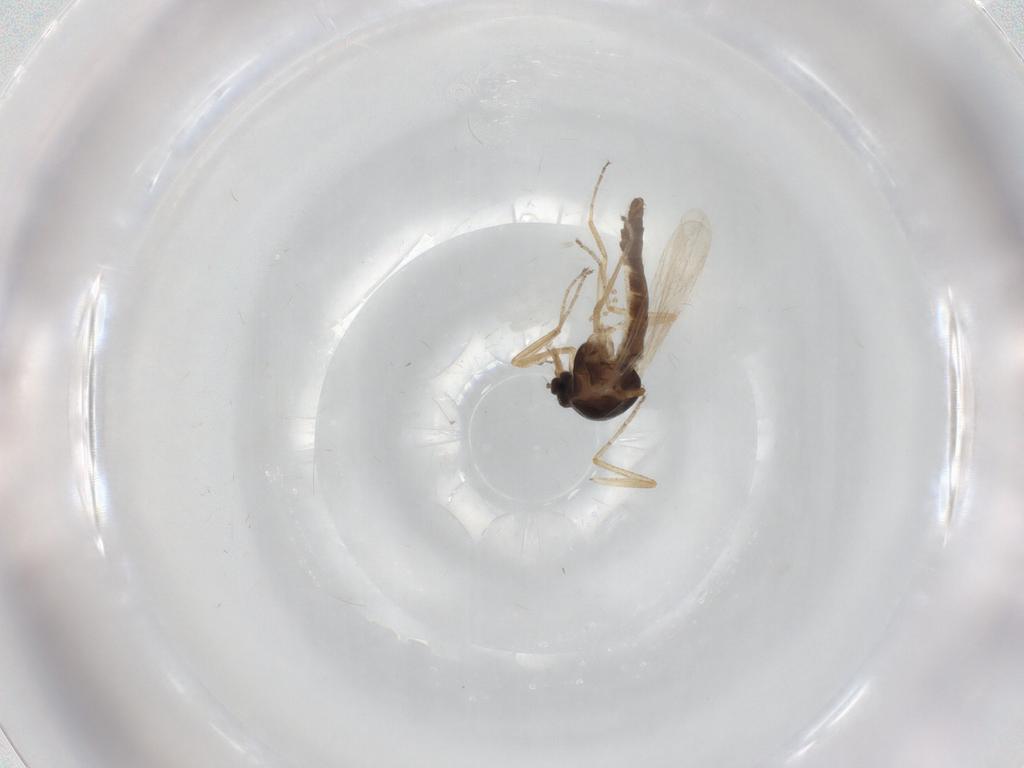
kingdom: Animalia
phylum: Arthropoda
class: Insecta
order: Diptera
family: Ceratopogonidae
